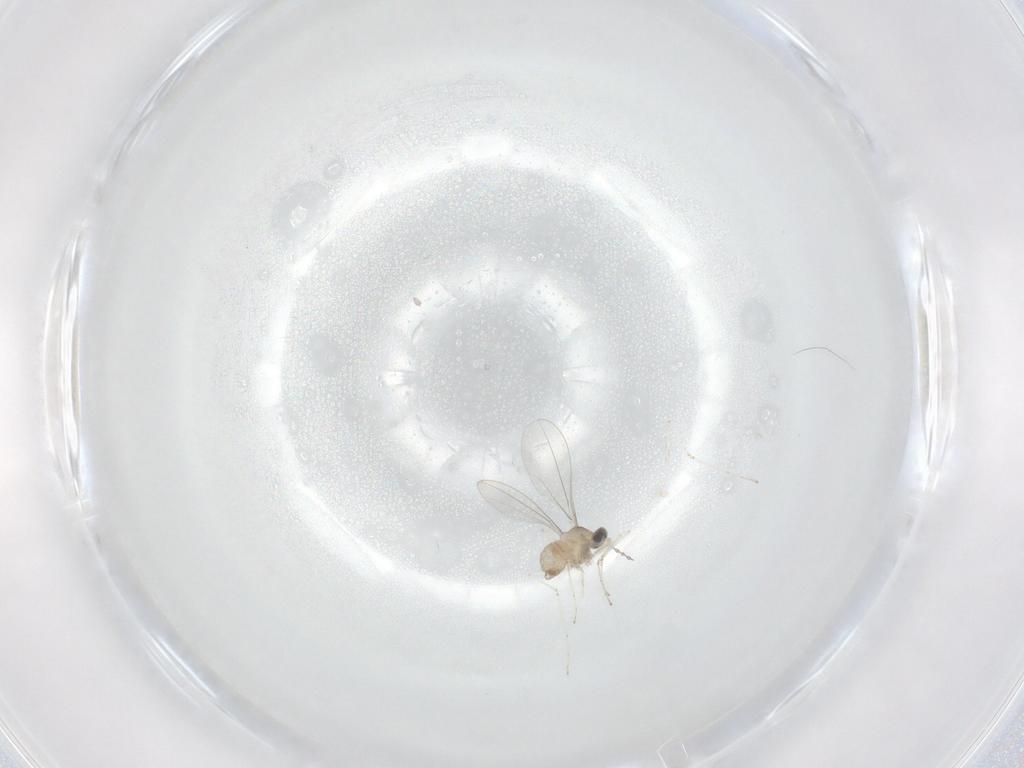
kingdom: Animalia
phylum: Arthropoda
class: Insecta
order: Diptera
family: Cecidomyiidae
